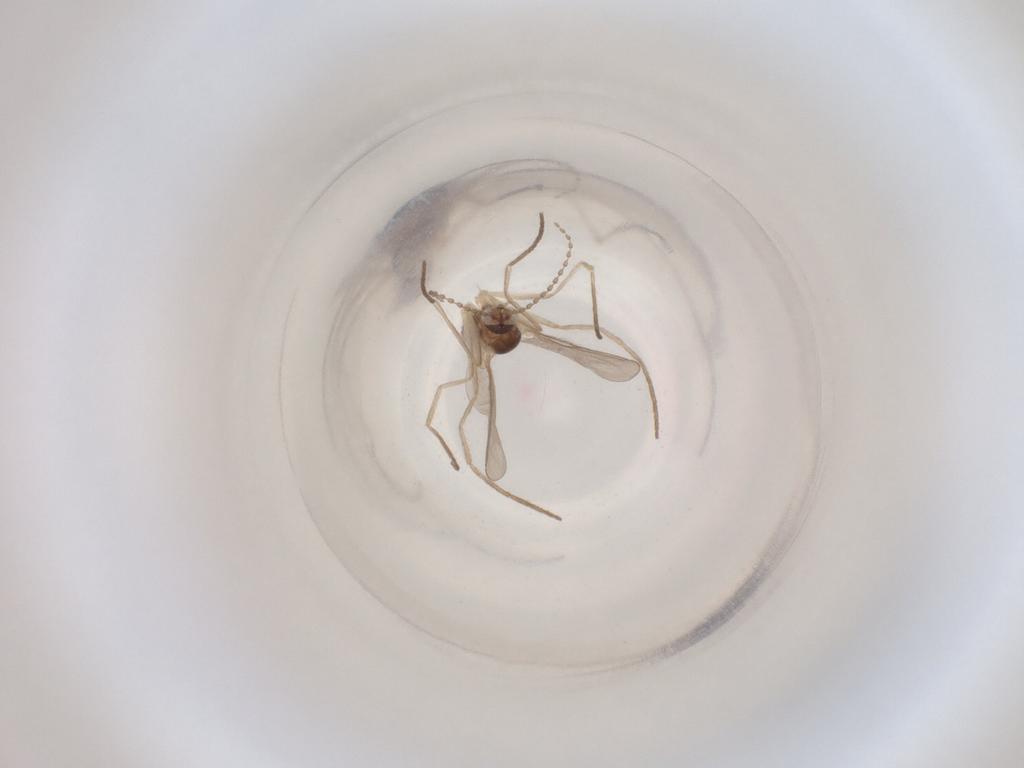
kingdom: Animalia
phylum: Arthropoda
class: Insecta
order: Diptera
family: Cecidomyiidae
